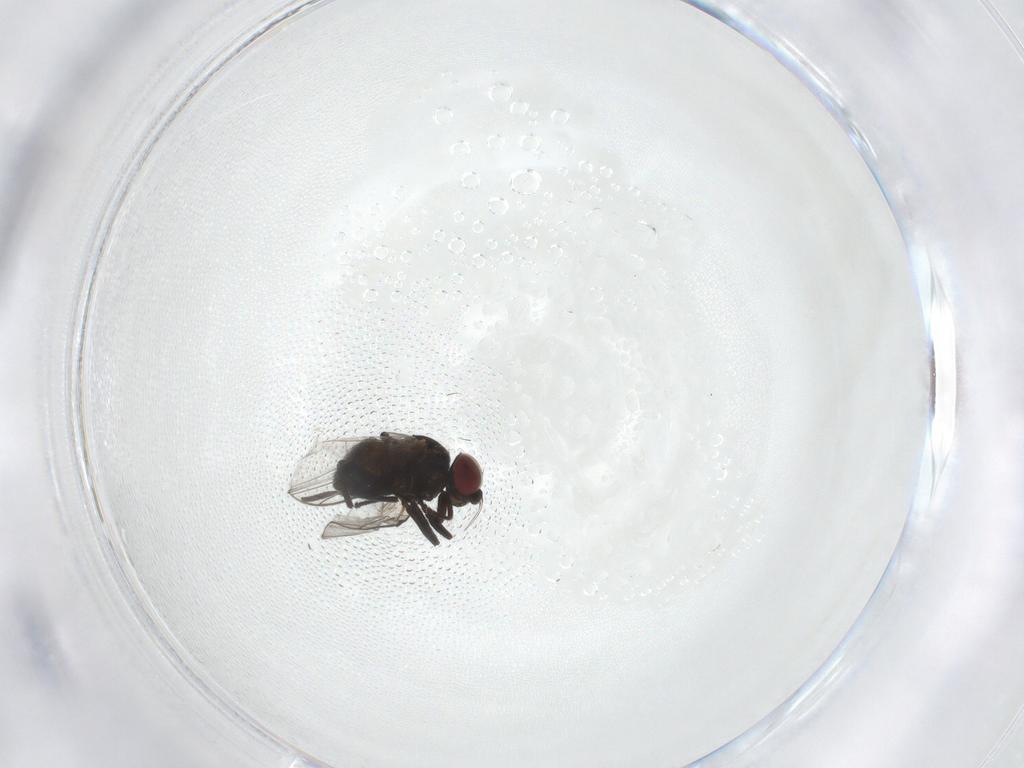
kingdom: Animalia
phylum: Arthropoda
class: Insecta
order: Diptera
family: Agromyzidae
